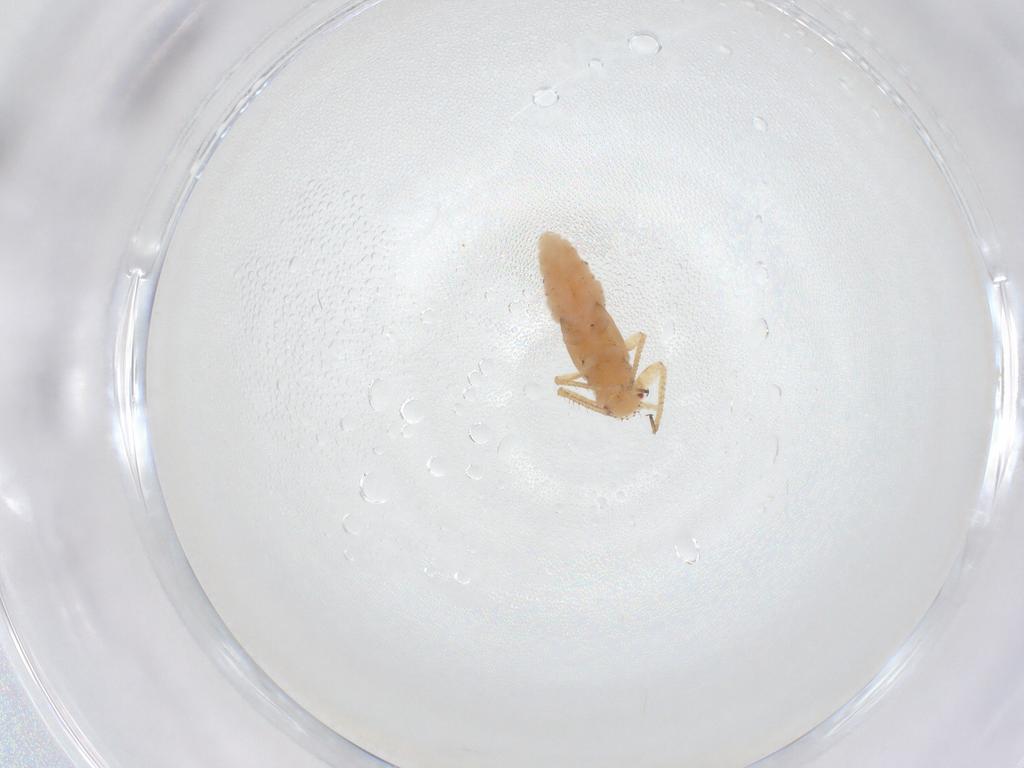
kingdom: Animalia
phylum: Arthropoda
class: Insecta
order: Hemiptera
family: Aphididae
